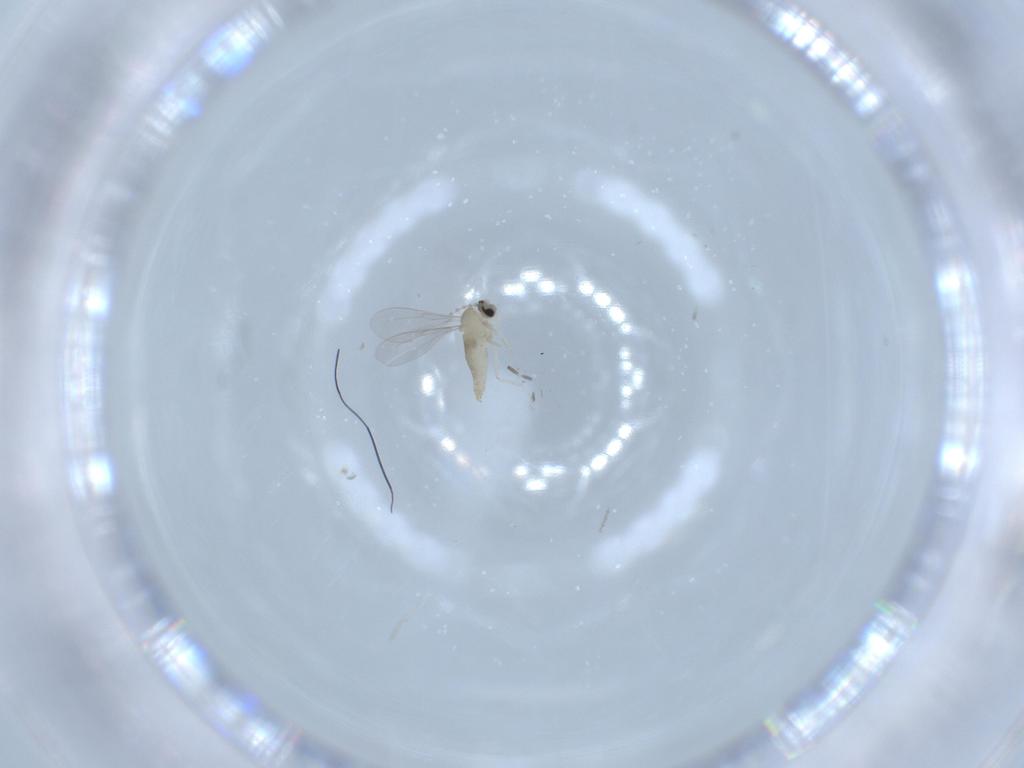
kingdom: Animalia
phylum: Arthropoda
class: Insecta
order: Diptera
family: Cecidomyiidae
